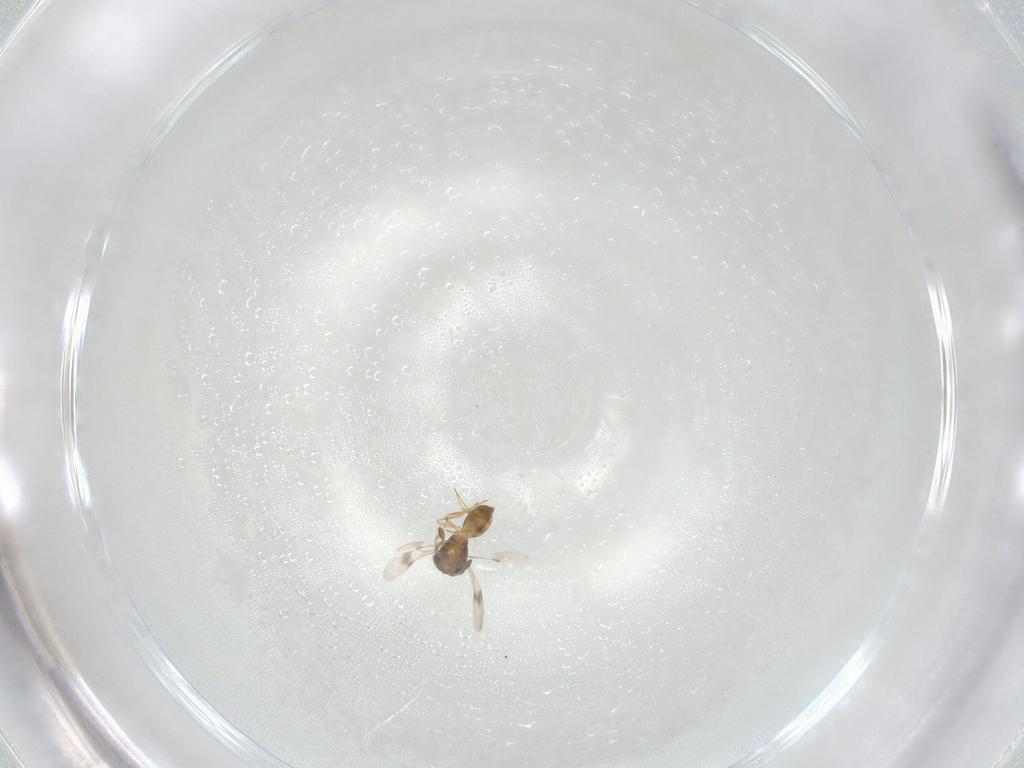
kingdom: Animalia
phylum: Arthropoda
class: Insecta
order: Hymenoptera
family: Scelionidae
